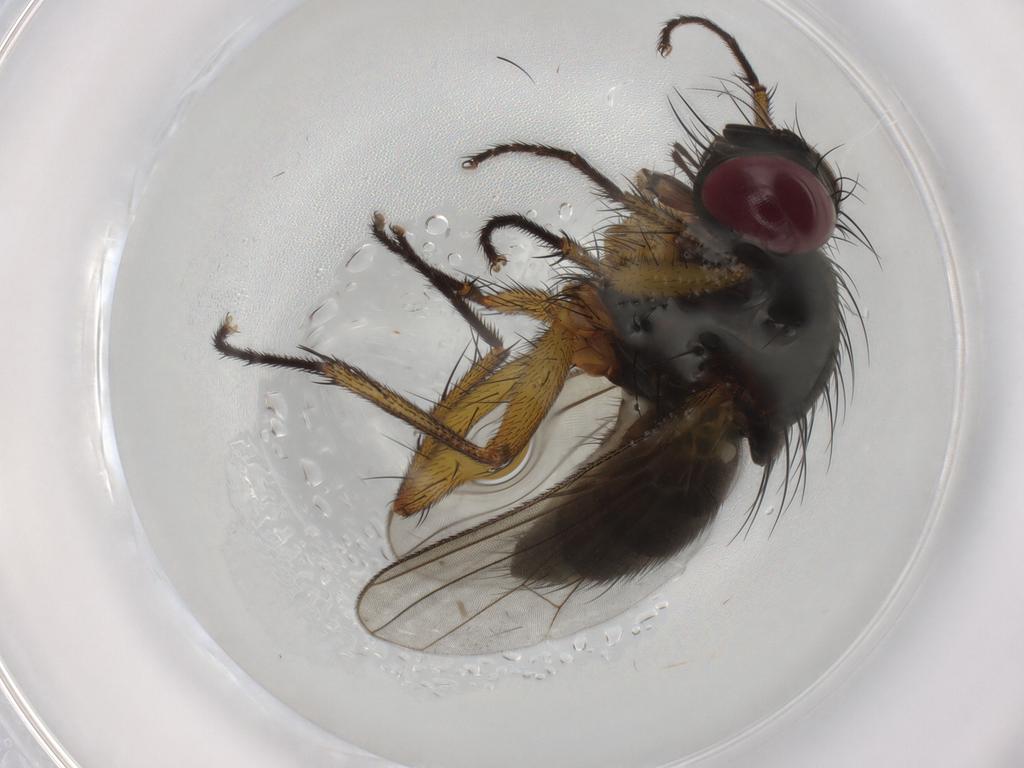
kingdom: Animalia
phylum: Arthropoda
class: Insecta
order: Diptera
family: Muscidae
